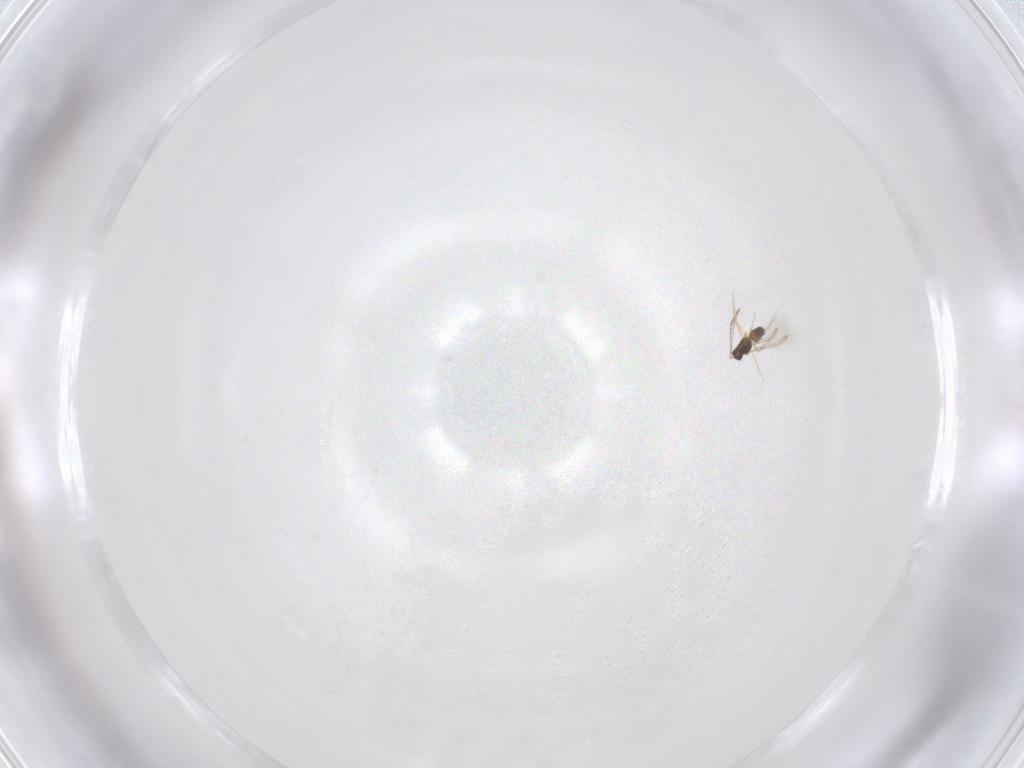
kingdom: Animalia
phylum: Arthropoda
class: Insecta
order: Hymenoptera
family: Mymaridae
